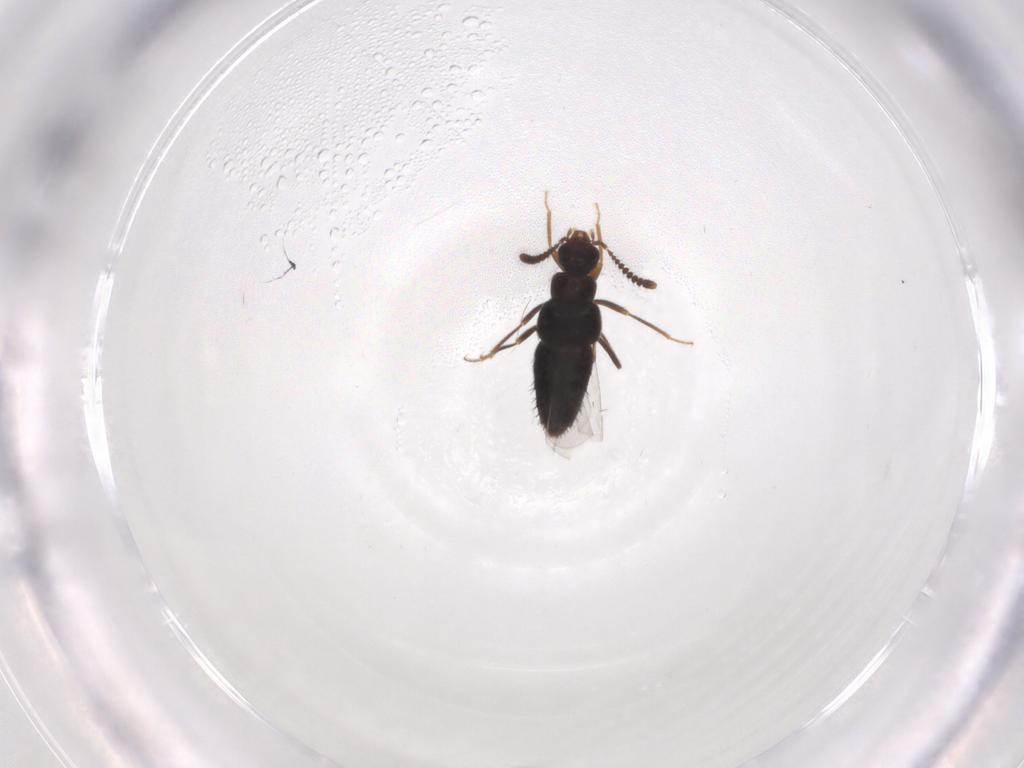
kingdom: Animalia
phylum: Arthropoda
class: Insecta
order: Coleoptera
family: Staphylinidae
